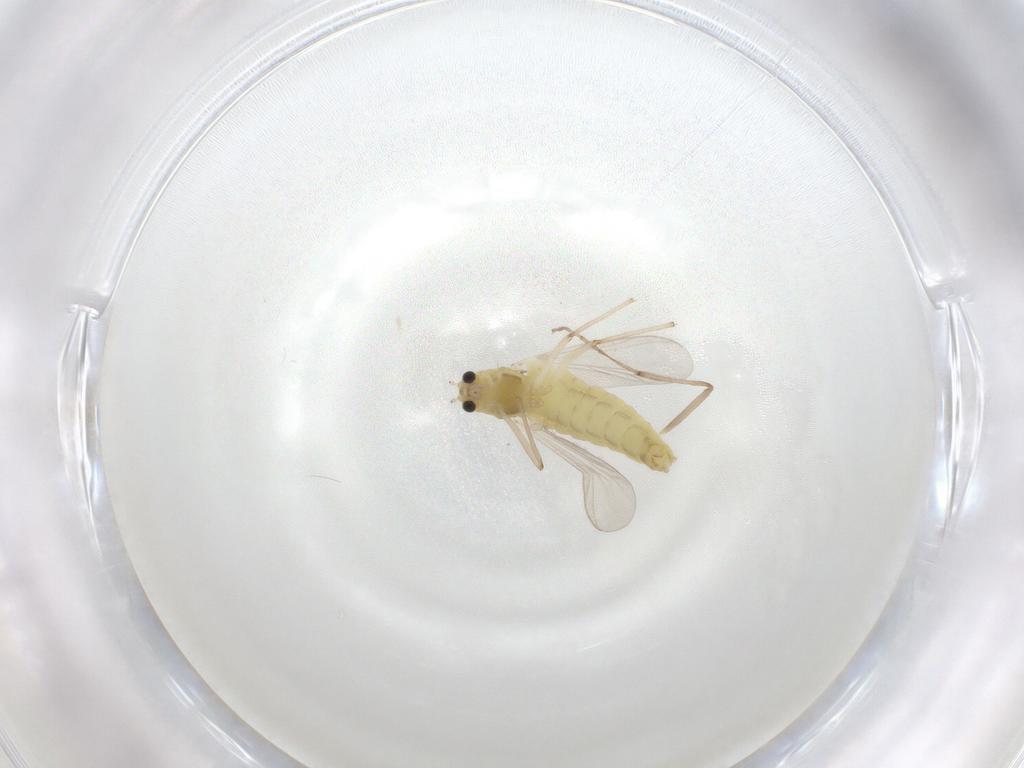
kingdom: Animalia
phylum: Arthropoda
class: Insecta
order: Diptera
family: Chironomidae
